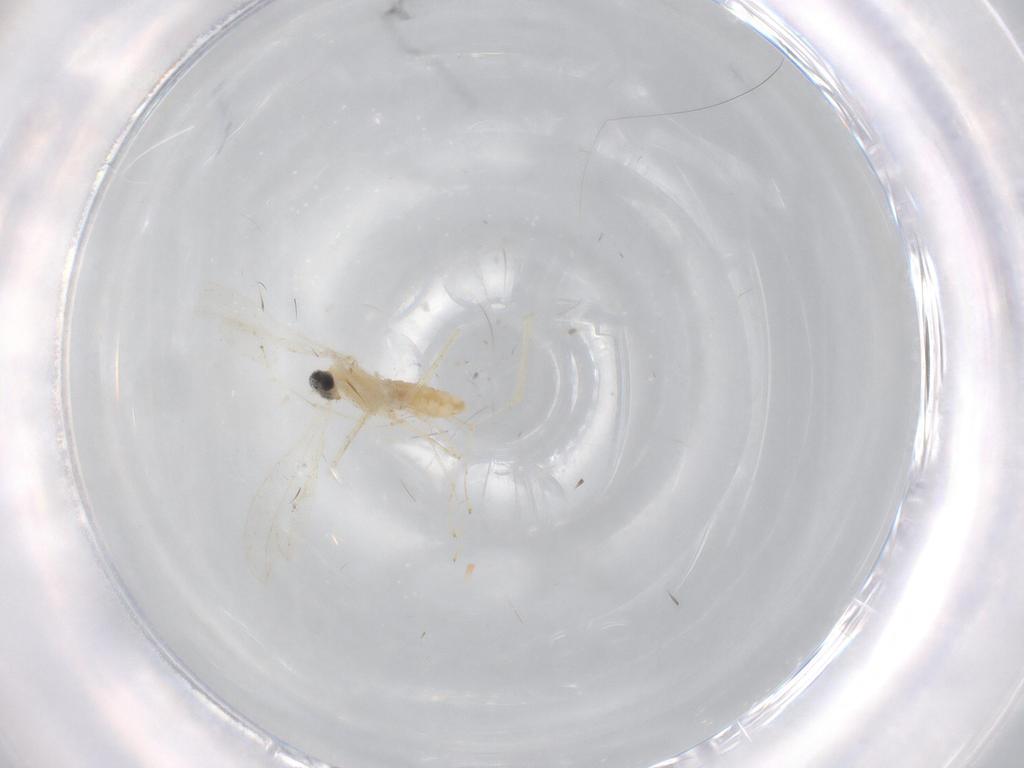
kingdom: Animalia
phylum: Arthropoda
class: Insecta
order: Diptera
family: Cecidomyiidae
